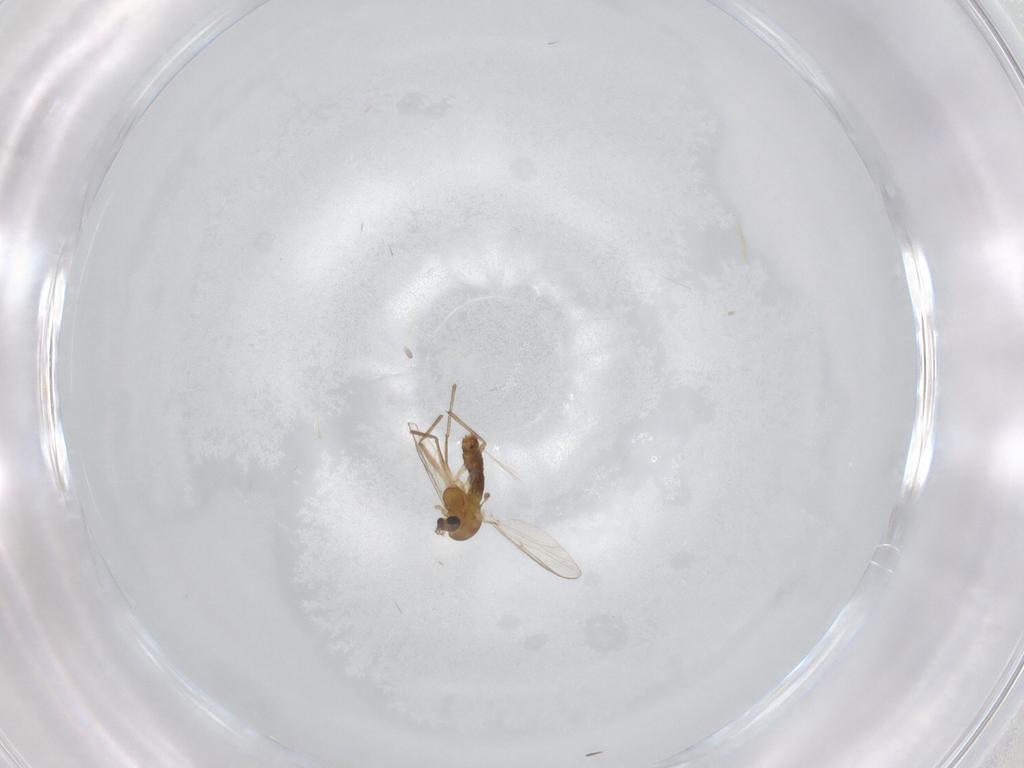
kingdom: Animalia
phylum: Arthropoda
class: Insecta
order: Diptera
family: Chironomidae
